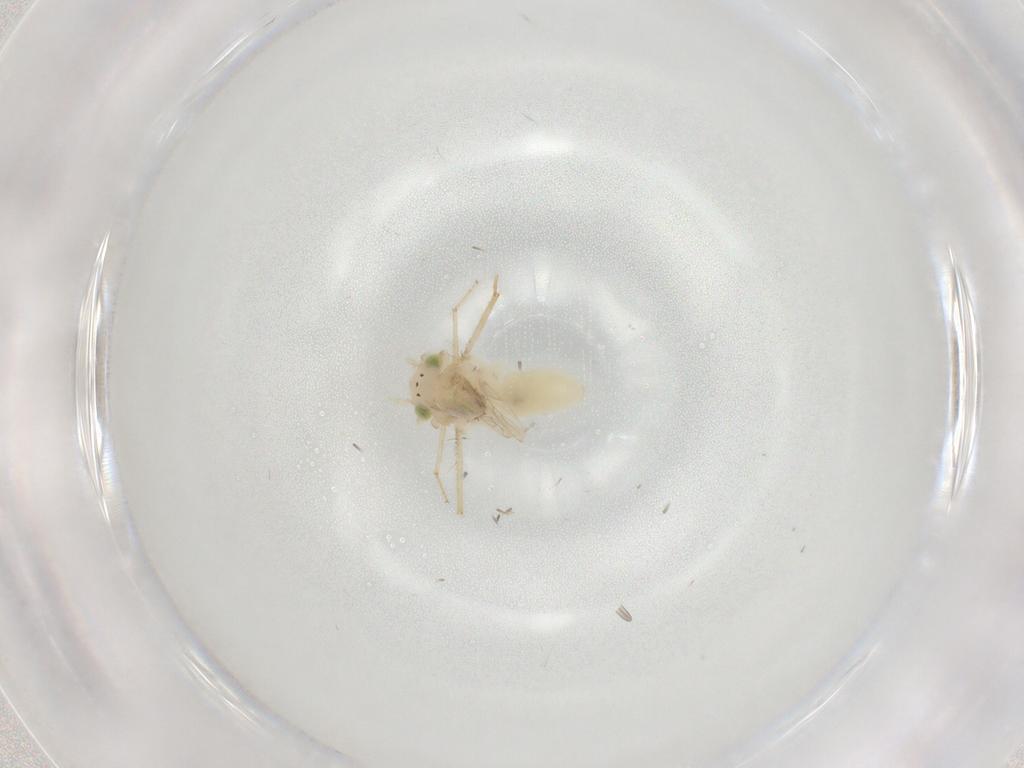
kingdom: Animalia
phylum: Arthropoda
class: Insecta
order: Psocodea
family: Lepidopsocidae
